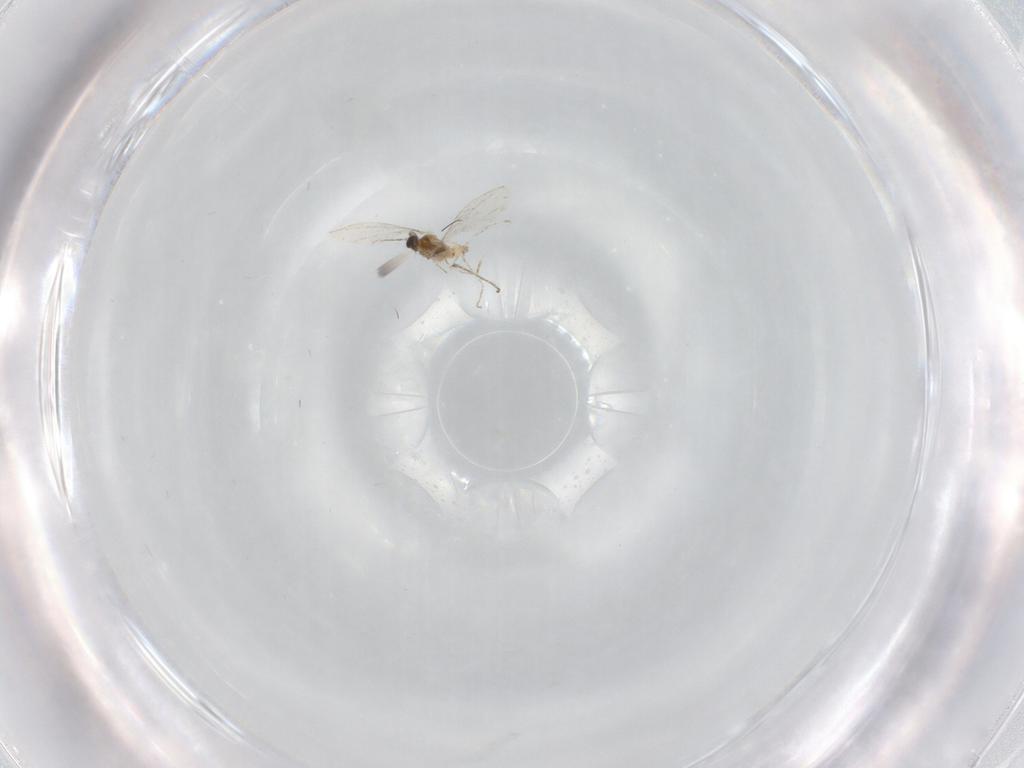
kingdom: Animalia
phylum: Arthropoda
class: Insecta
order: Diptera
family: Cecidomyiidae
